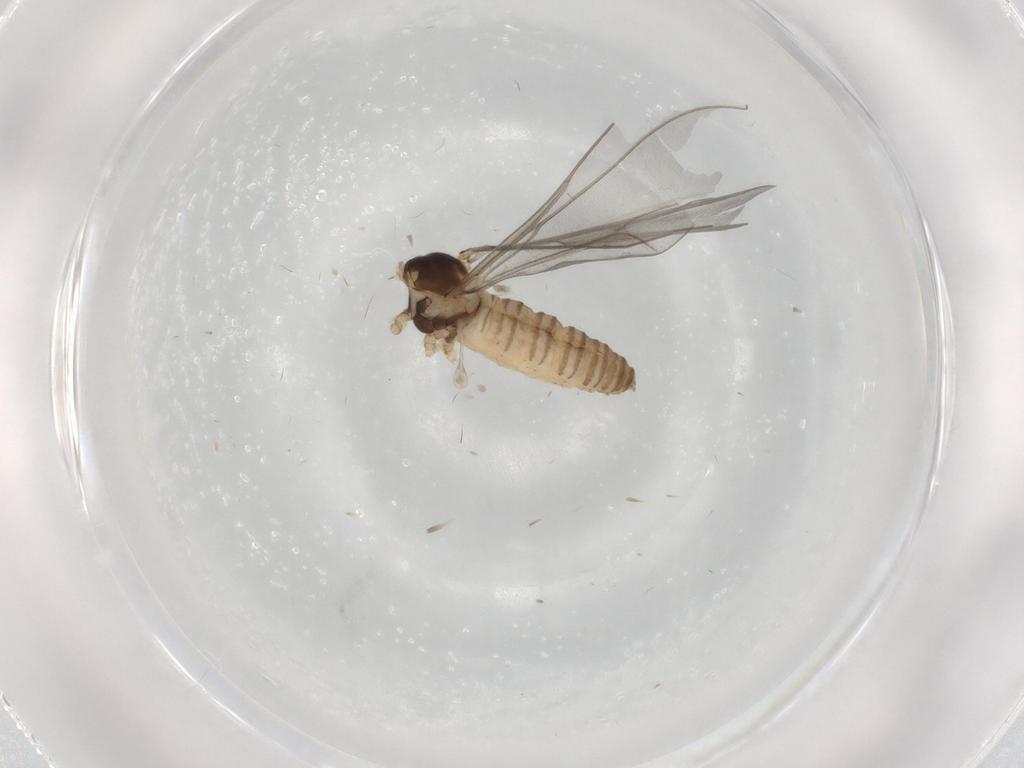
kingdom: Animalia
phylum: Arthropoda
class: Insecta
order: Diptera
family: Cecidomyiidae
